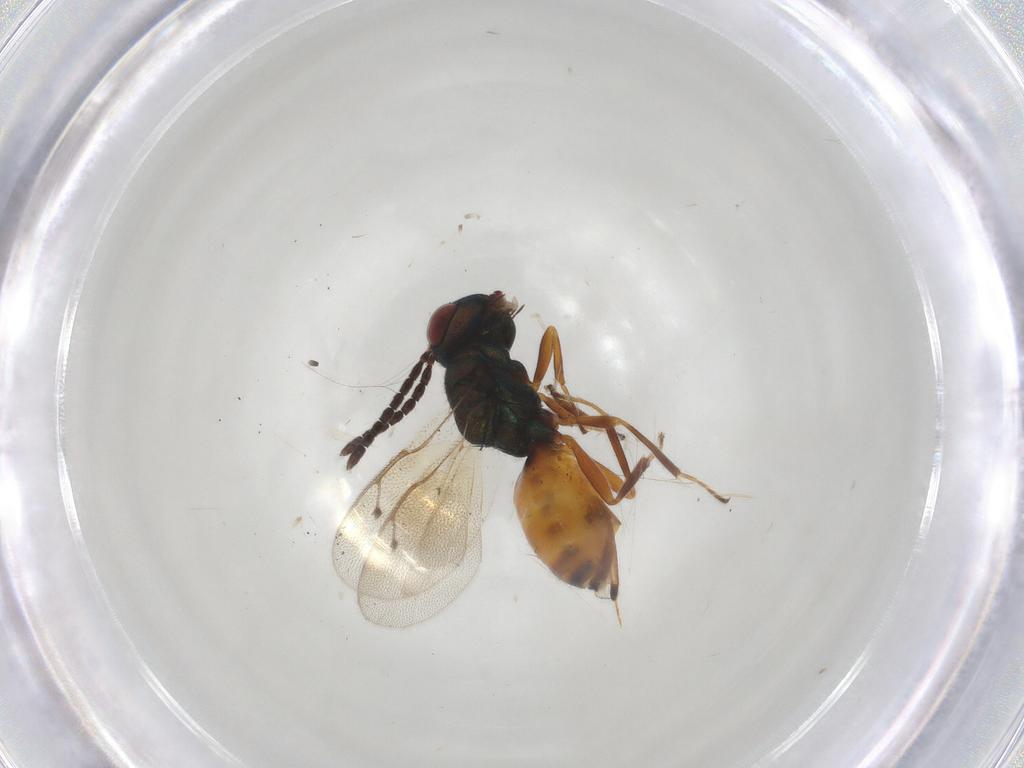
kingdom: Animalia
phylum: Arthropoda
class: Insecta
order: Hymenoptera
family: Pteromalidae
